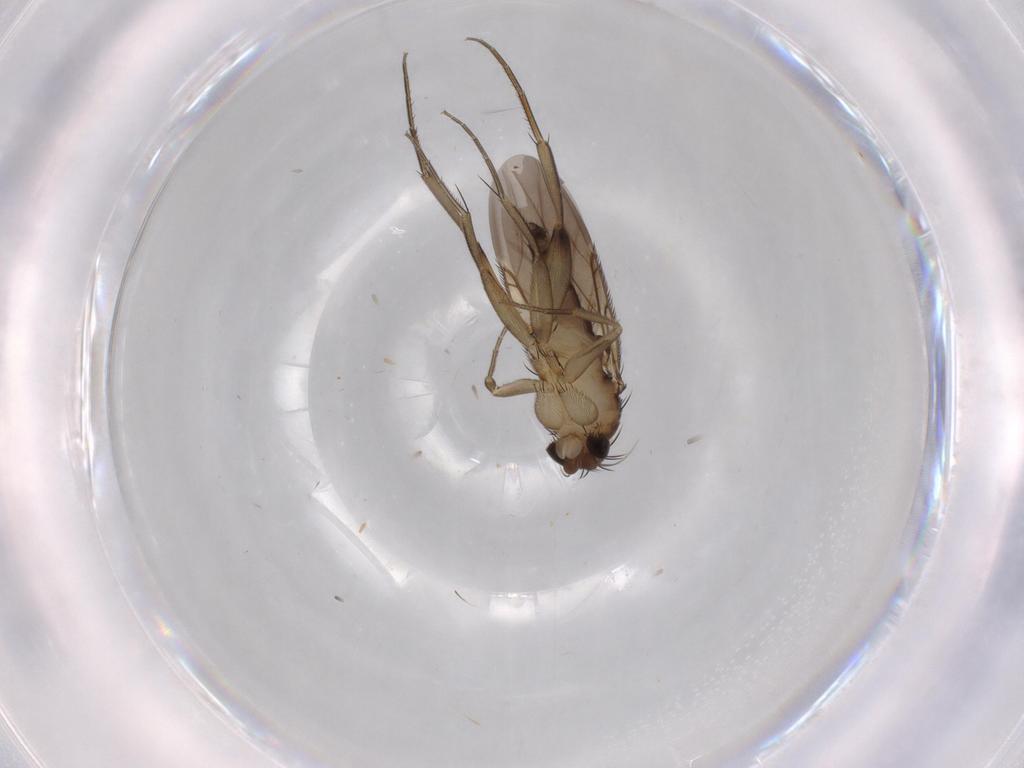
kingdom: Animalia
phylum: Arthropoda
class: Insecta
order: Diptera
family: Phoridae
